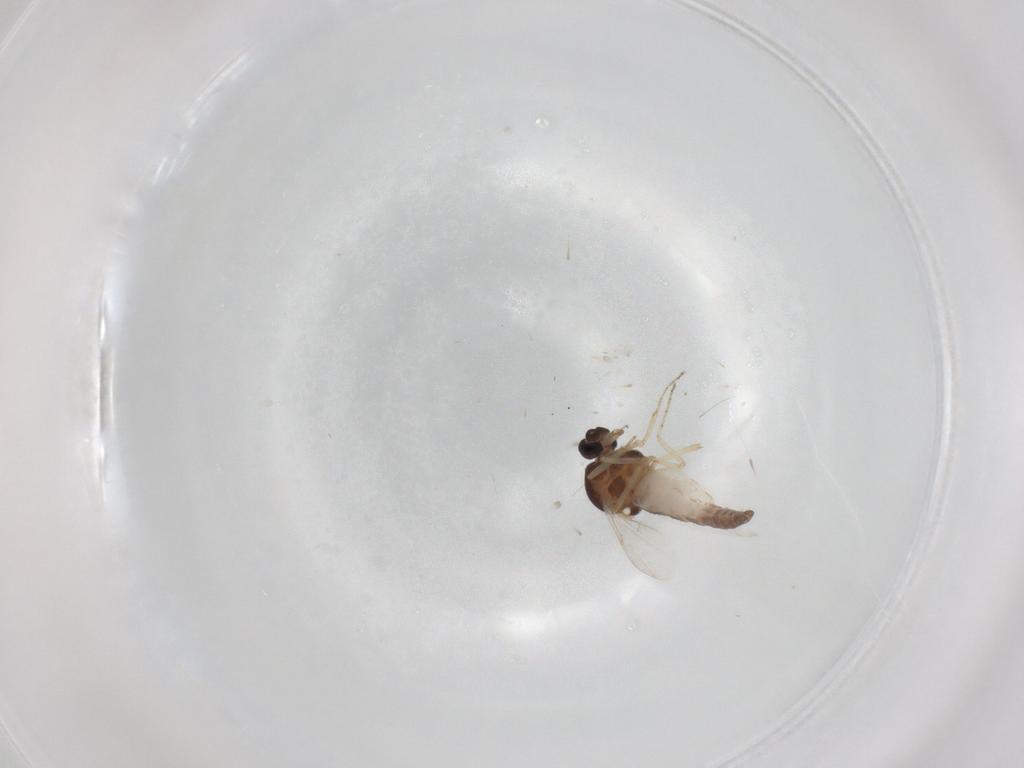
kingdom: Animalia
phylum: Arthropoda
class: Insecta
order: Diptera
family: Ceratopogonidae
